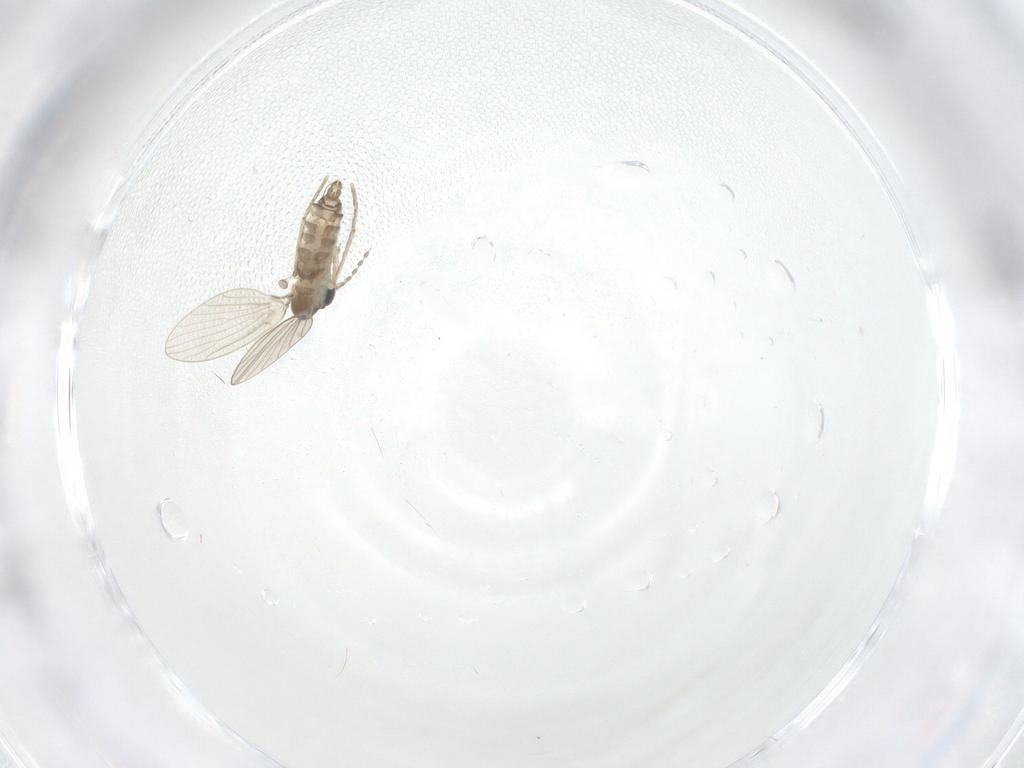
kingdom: Animalia
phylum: Arthropoda
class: Insecta
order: Diptera
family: Ceratopogonidae
